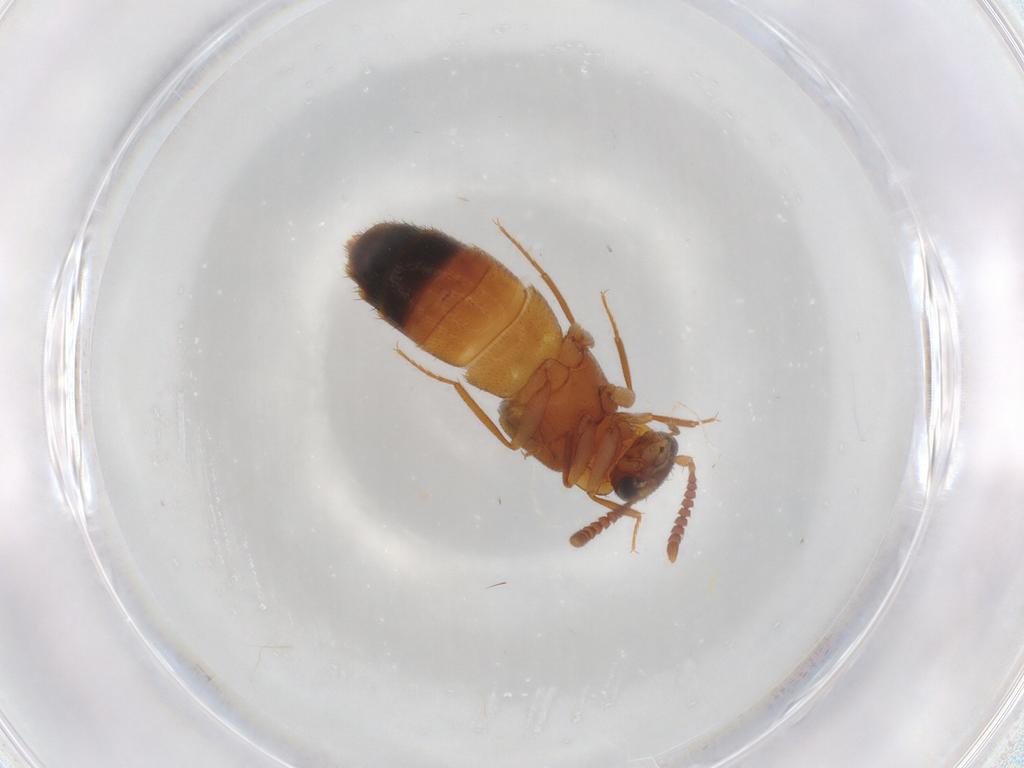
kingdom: Animalia
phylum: Arthropoda
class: Insecta
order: Coleoptera
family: Staphylinidae
